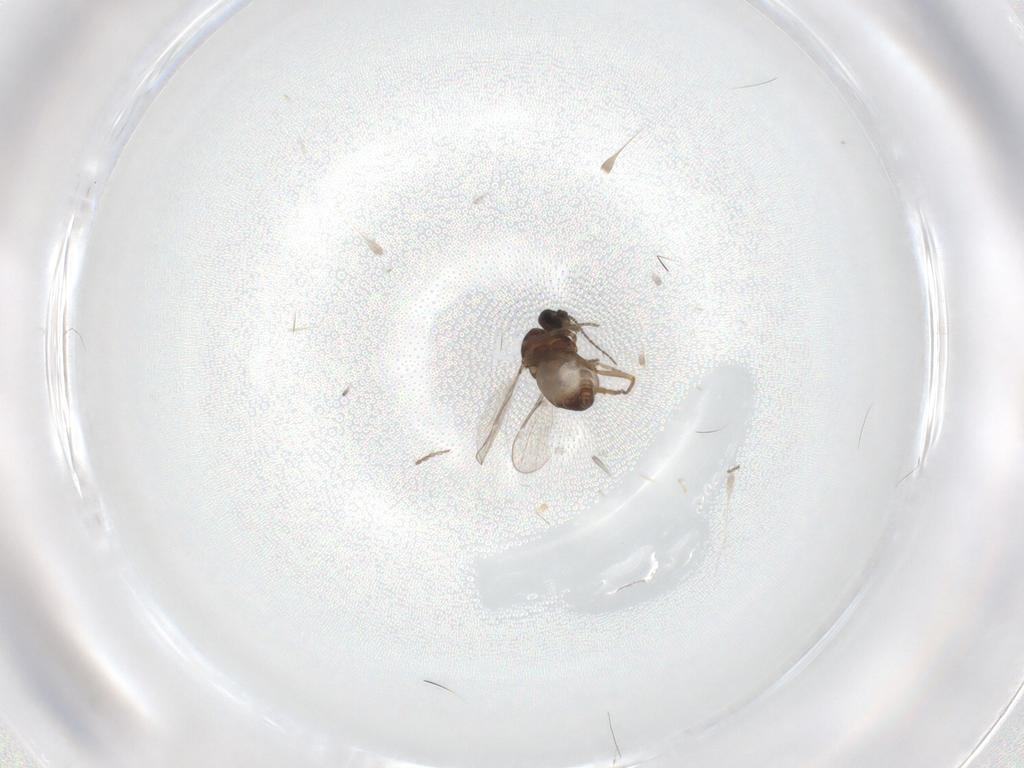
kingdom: Animalia
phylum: Arthropoda
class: Insecta
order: Diptera
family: Ceratopogonidae
